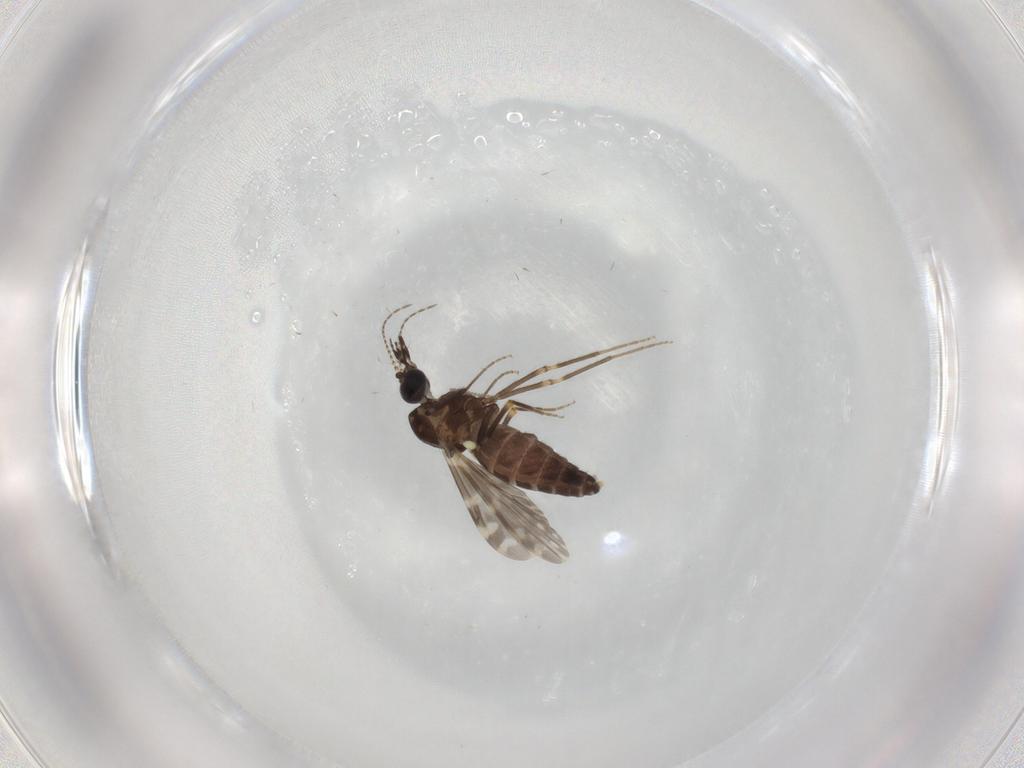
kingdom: Animalia
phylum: Arthropoda
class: Insecta
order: Diptera
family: Ceratopogonidae
